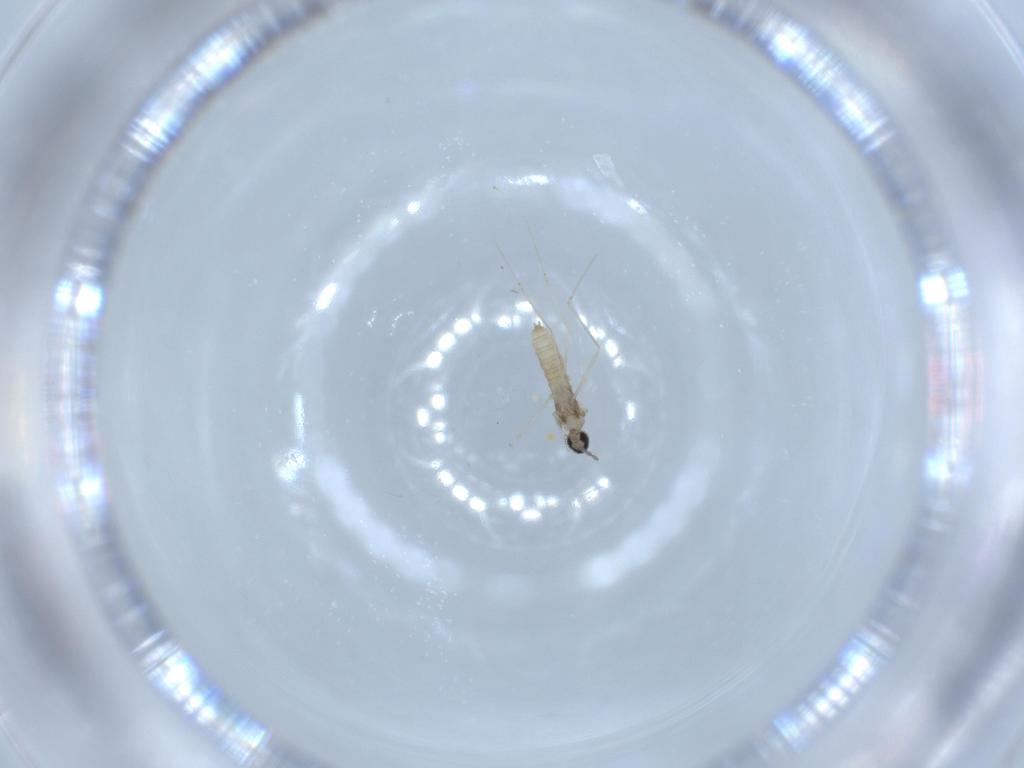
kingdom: Animalia
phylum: Arthropoda
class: Insecta
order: Diptera
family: Cecidomyiidae
